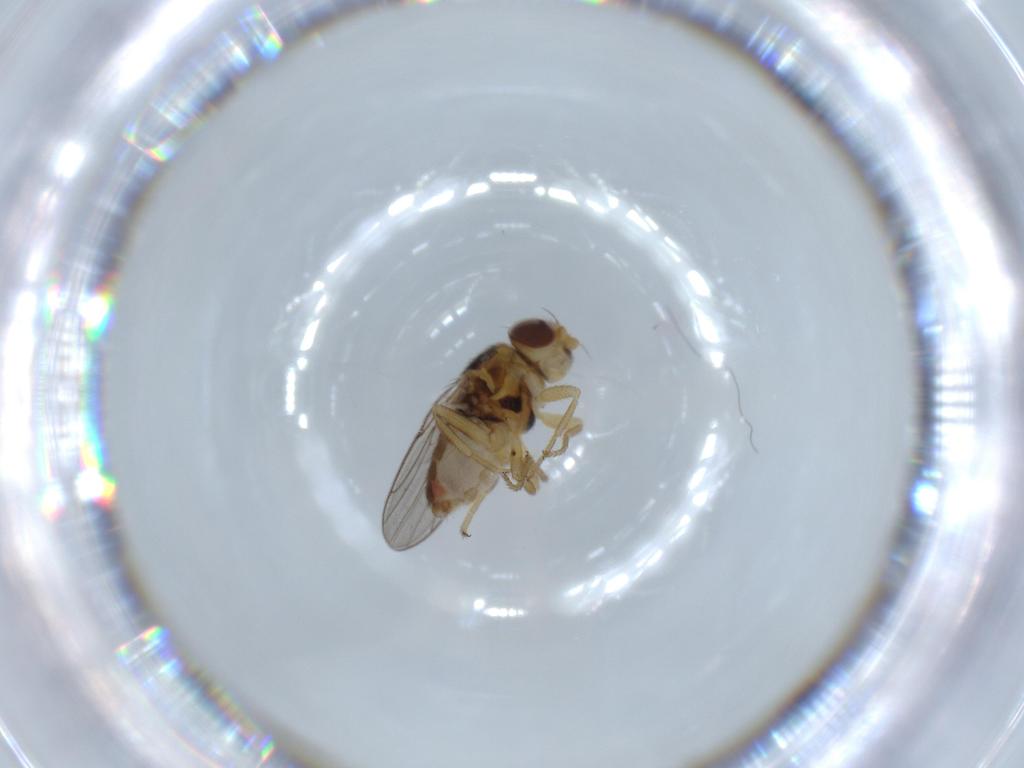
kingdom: Animalia
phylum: Arthropoda
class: Insecta
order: Diptera
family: Chloropidae
